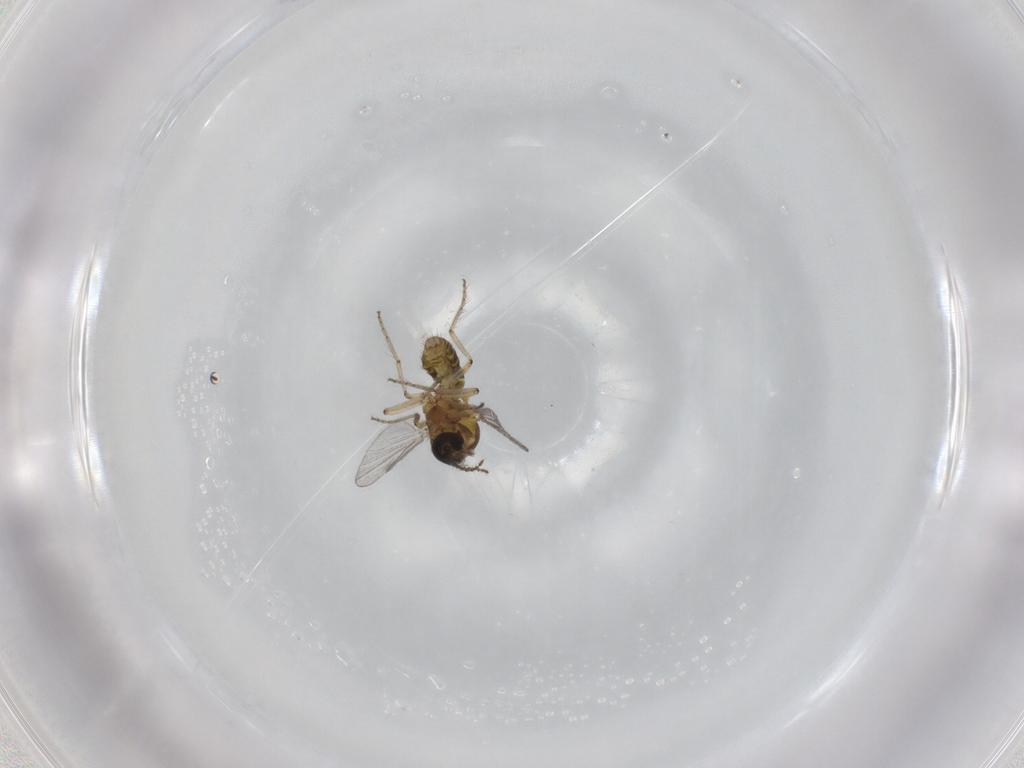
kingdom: Animalia
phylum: Arthropoda
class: Insecta
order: Diptera
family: Ceratopogonidae
